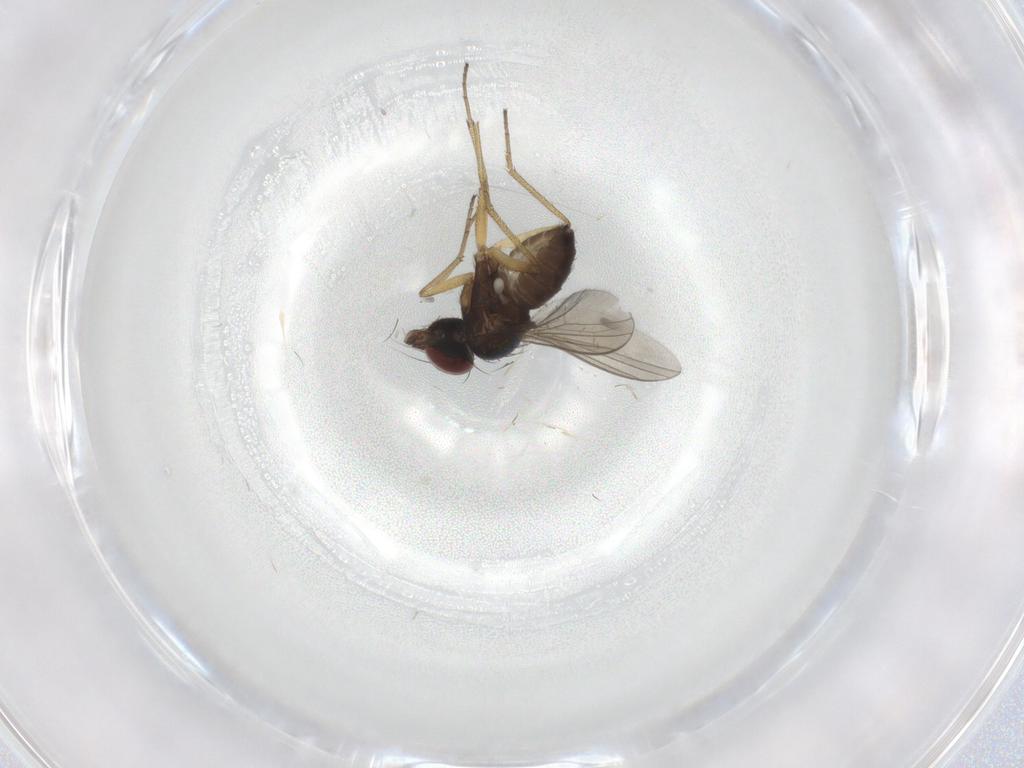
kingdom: Animalia
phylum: Arthropoda
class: Insecta
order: Diptera
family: Dolichopodidae
